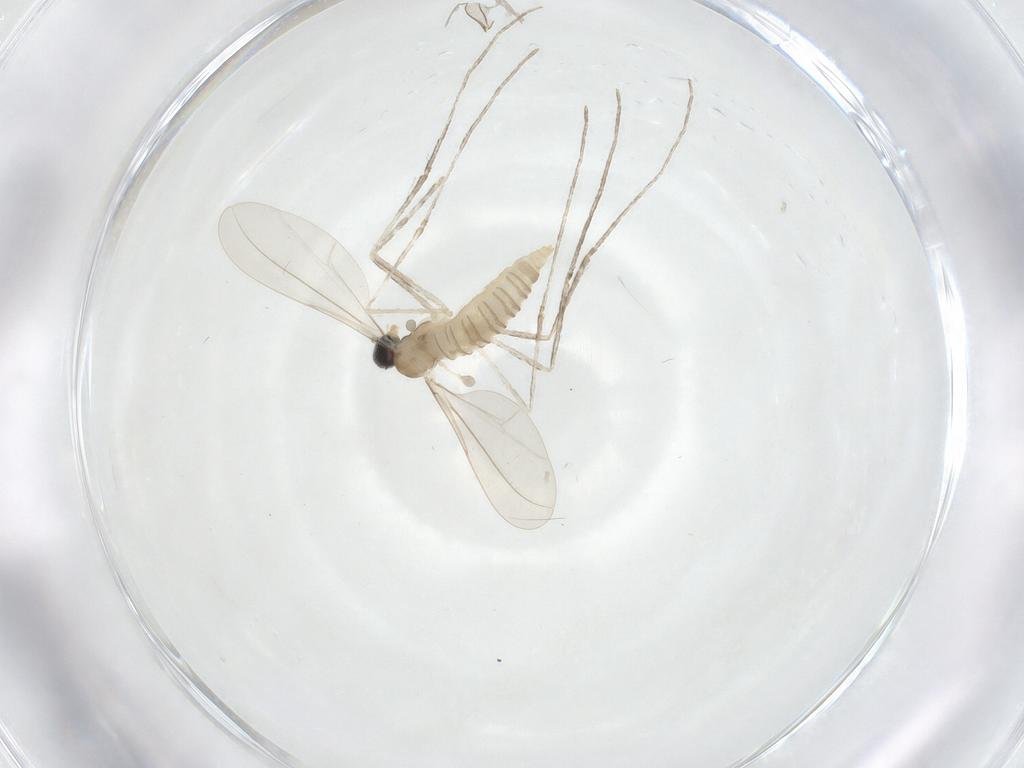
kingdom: Animalia
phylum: Arthropoda
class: Insecta
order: Diptera
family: Cecidomyiidae
